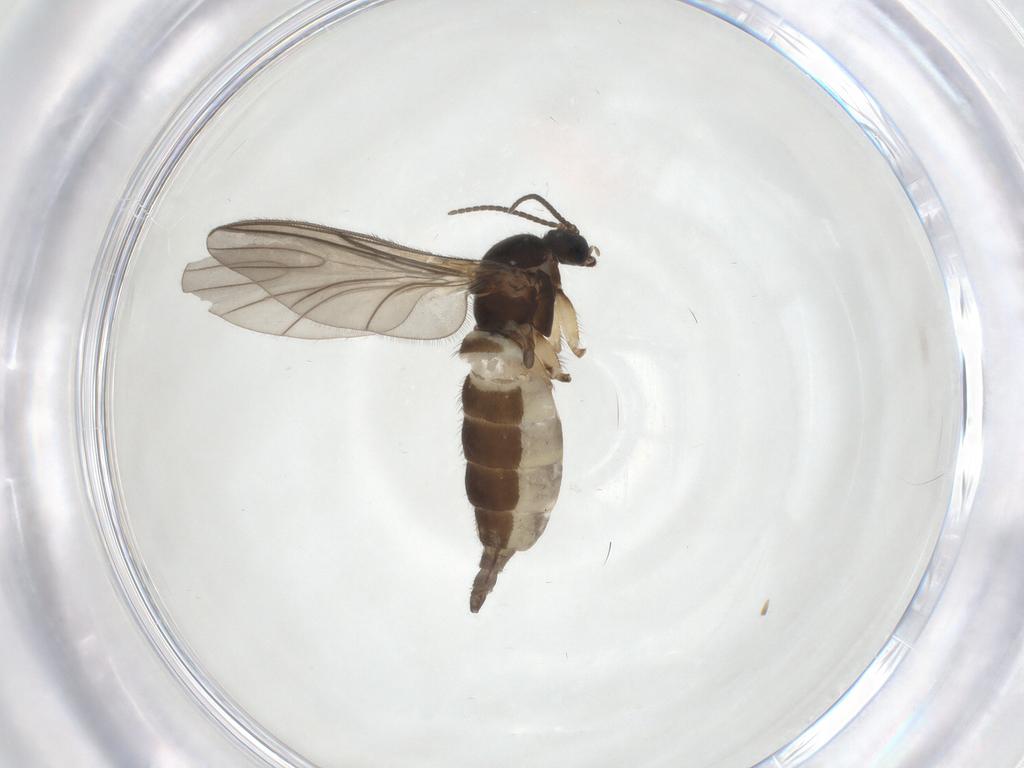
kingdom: Animalia
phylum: Arthropoda
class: Insecta
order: Diptera
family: Sciaridae
